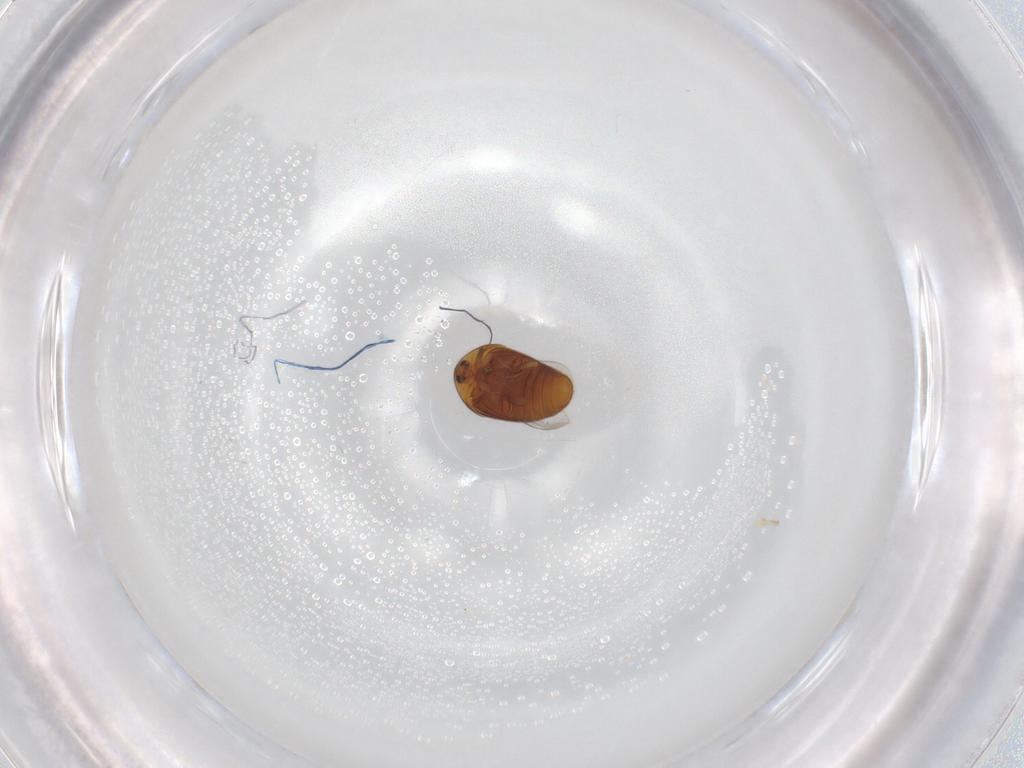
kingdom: Animalia
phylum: Arthropoda
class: Insecta
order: Coleoptera
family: Corylophidae
